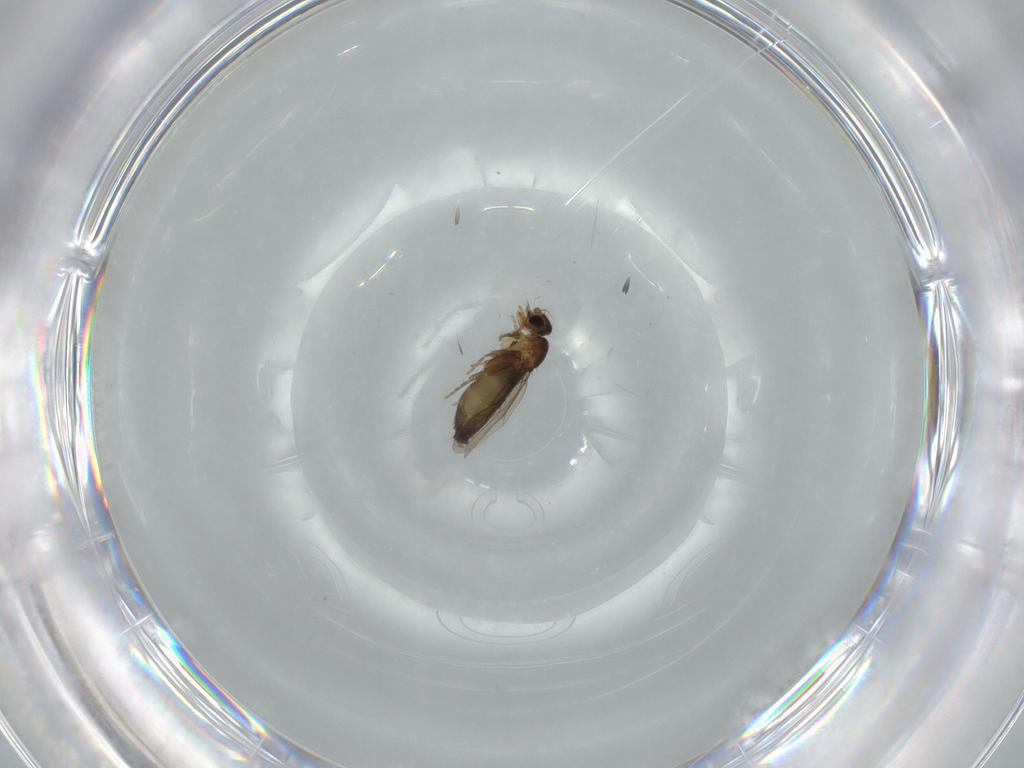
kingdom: Animalia
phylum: Arthropoda
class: Insecta
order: Diptera
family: Phoridae
